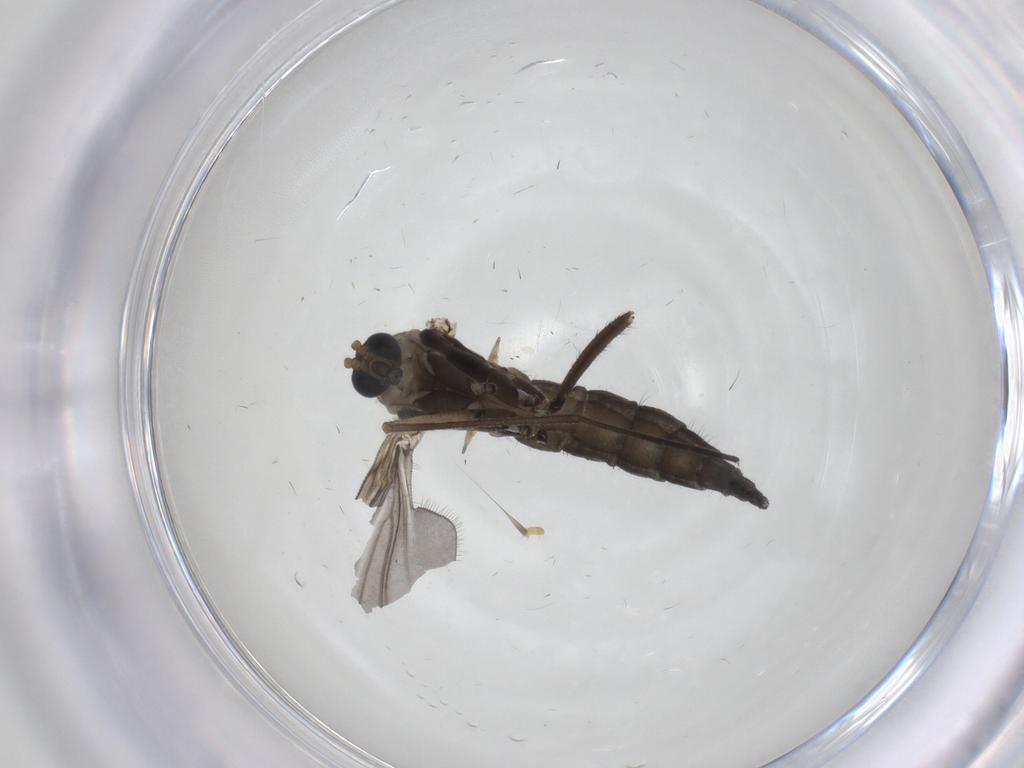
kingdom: Animalia
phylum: Arthropoda
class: Insecta
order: Diptera
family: Sciaridae
